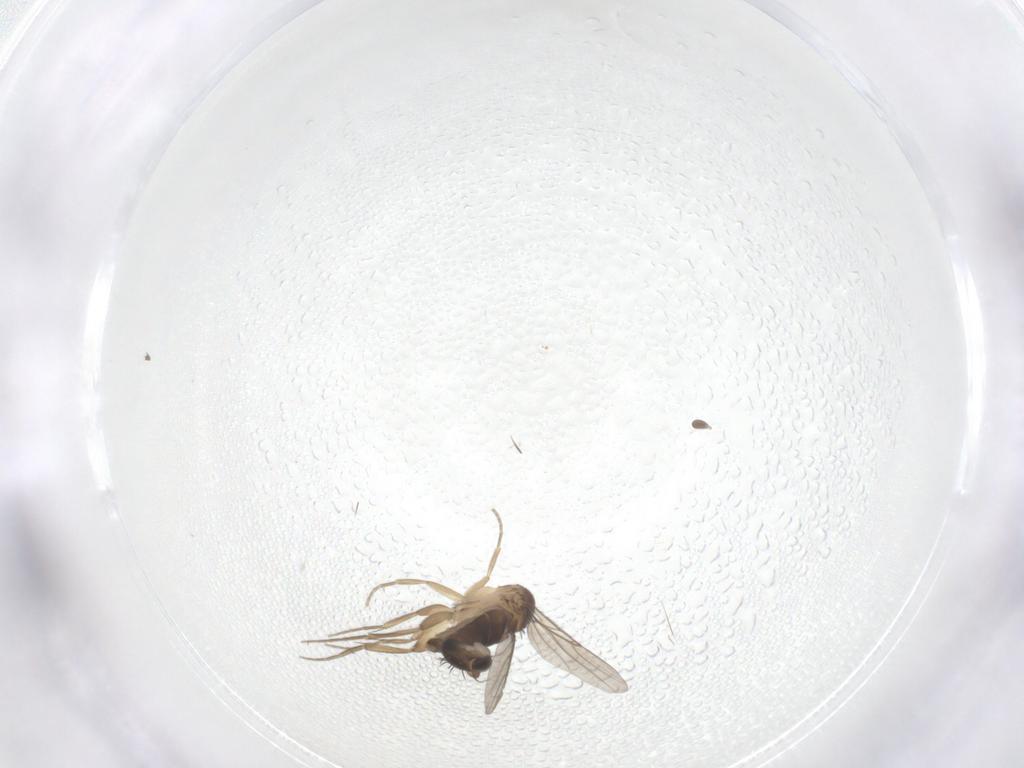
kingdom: Animalia
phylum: Arthropoda
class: Insecta
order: Diptera
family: Phoridae
